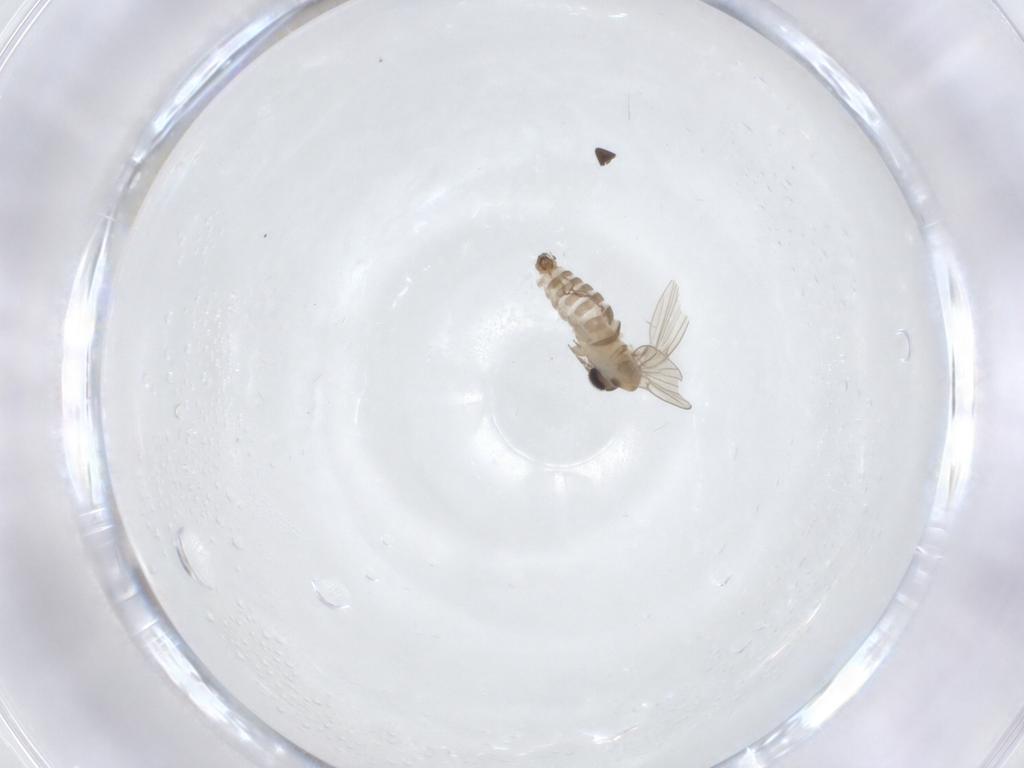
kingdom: Animalia
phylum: Arthropoda
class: Insecta
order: Diptera
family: Psychodidae
